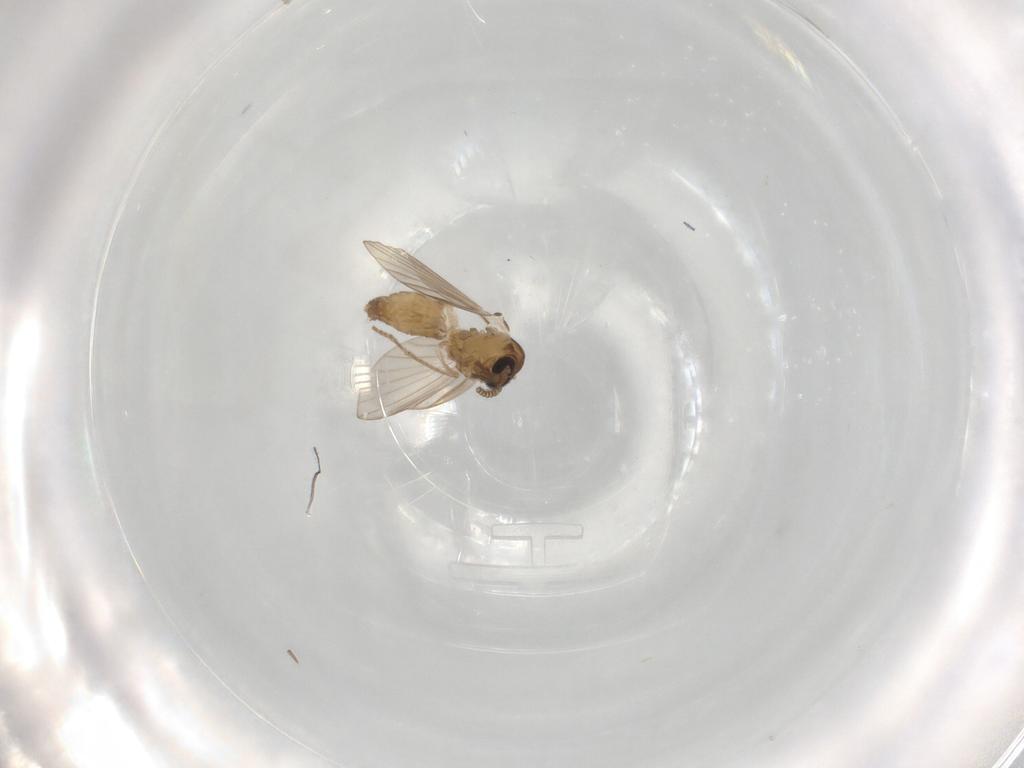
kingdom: Animalia
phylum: Arthropoda
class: Insecta
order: Diptera
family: Psychodidae
